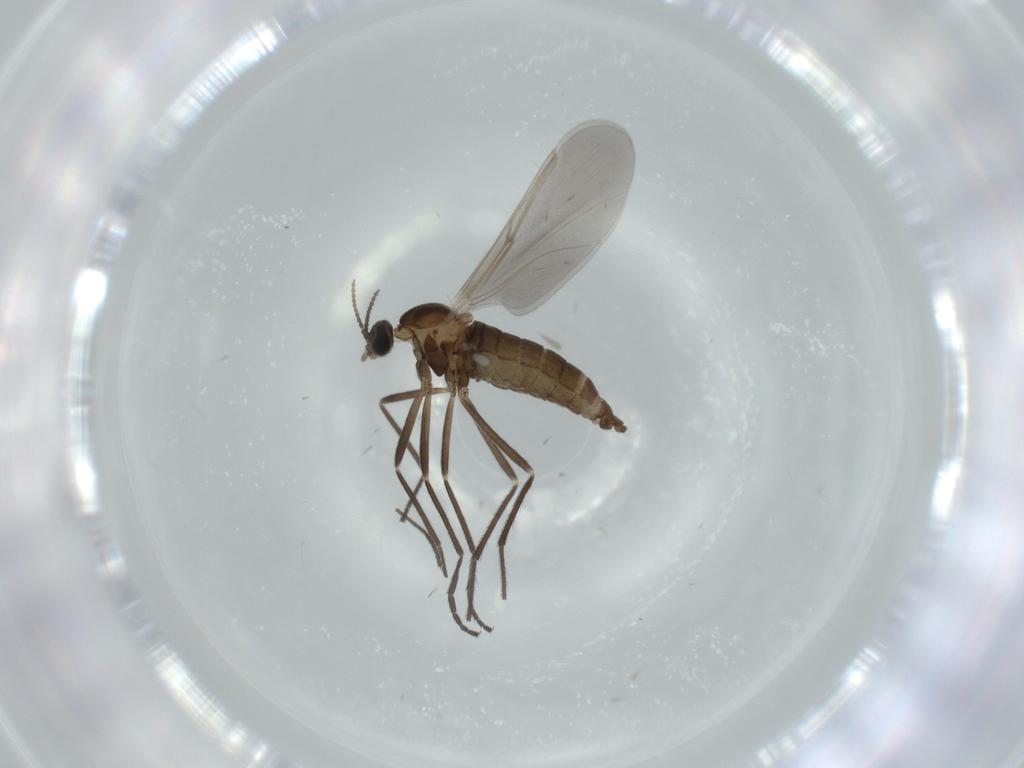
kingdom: Animalia
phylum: Arthropoda
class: Insecta
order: Diptera
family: Cecidomyiidae
